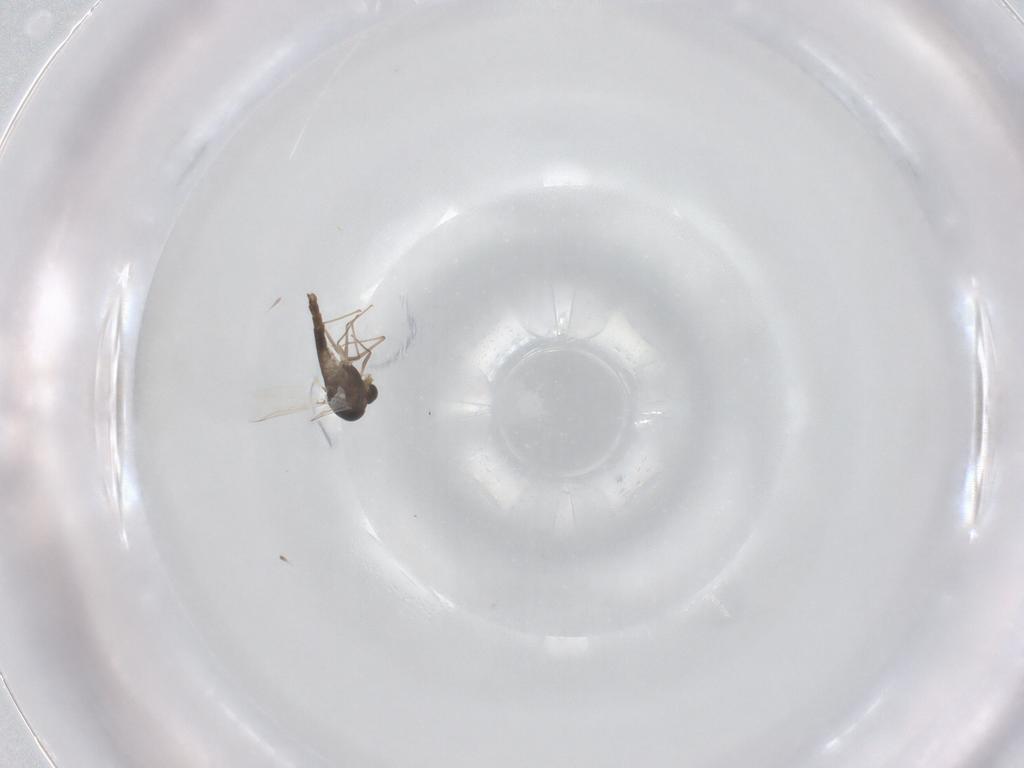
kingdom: Animalia
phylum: Arthropoda
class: Insecta
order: Diptera
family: Chironomidae
